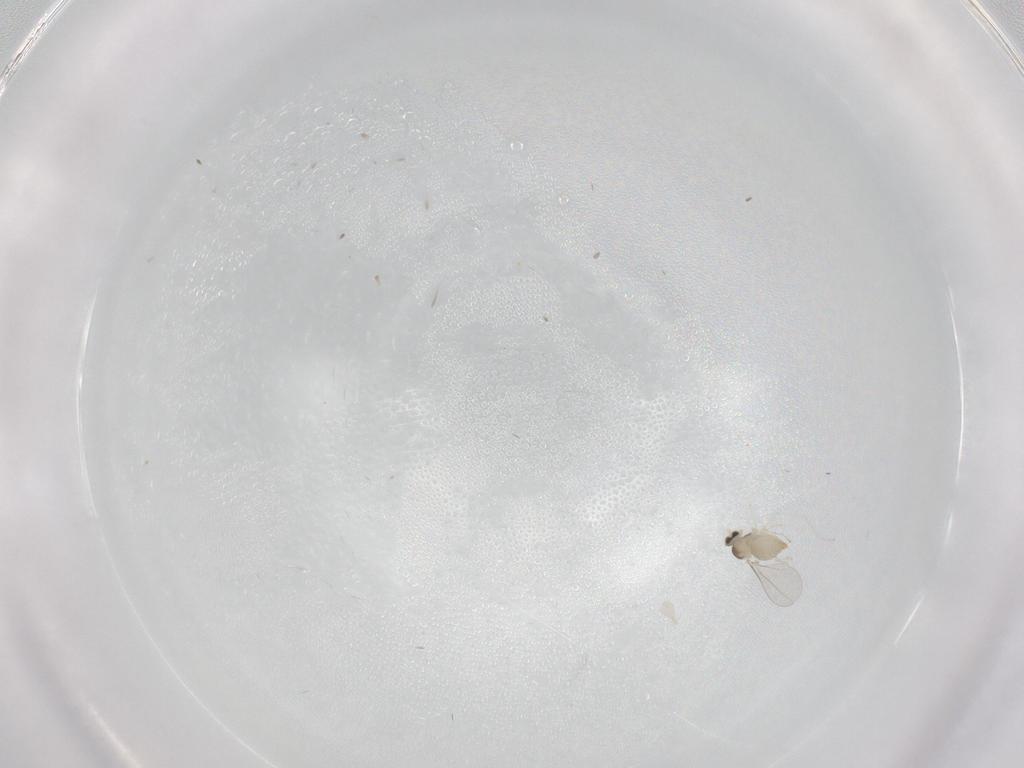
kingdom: Animalia
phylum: Arthropoda
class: Insecta
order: Diptera
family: Cecidomyiidae
